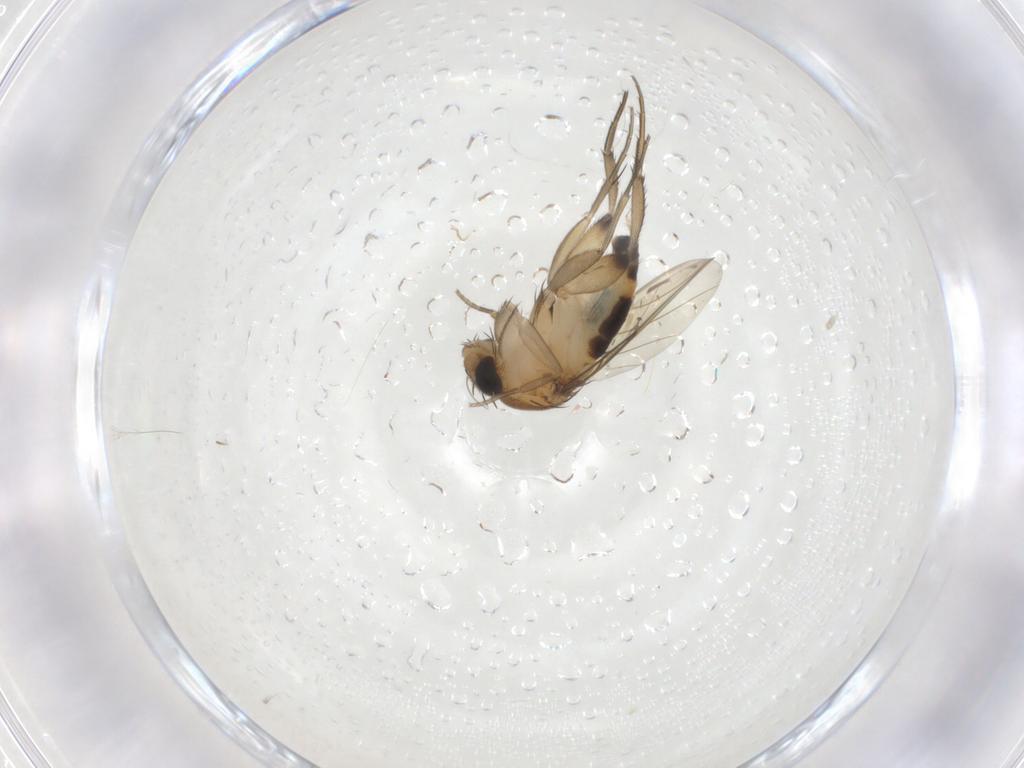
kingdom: Animalia
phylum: Arthropoda
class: Insecta
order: Diptera
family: Phoridae
